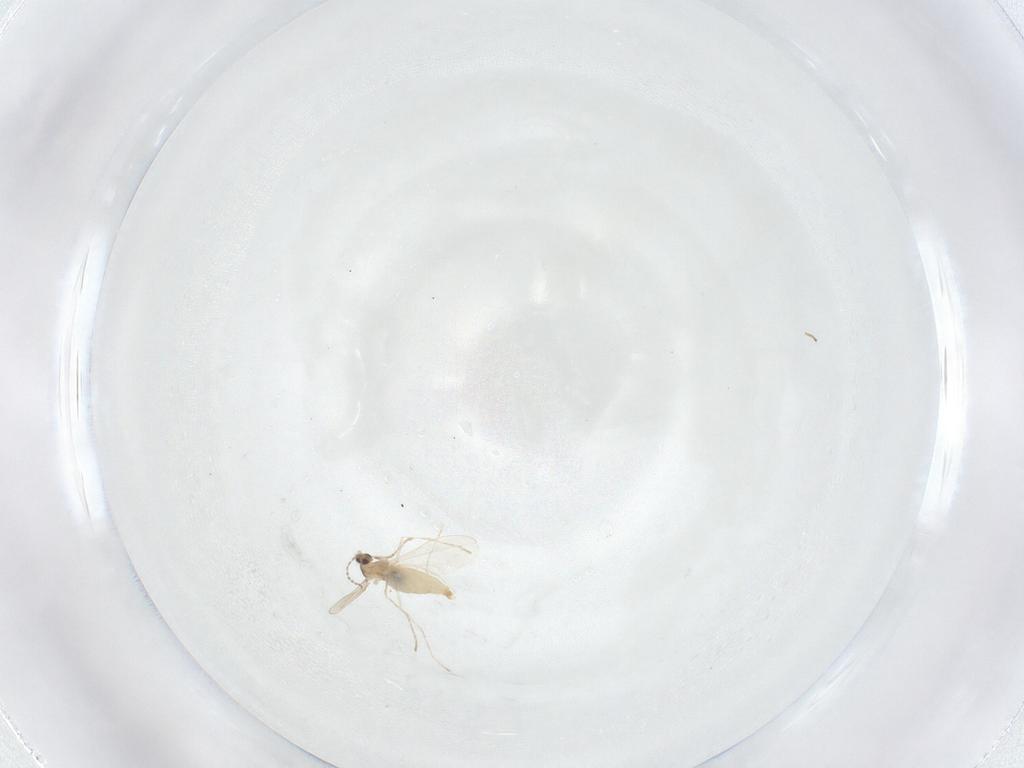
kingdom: Animalia
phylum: Arthropoda
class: Insecta
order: Diptera
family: Cecidomyiidae
